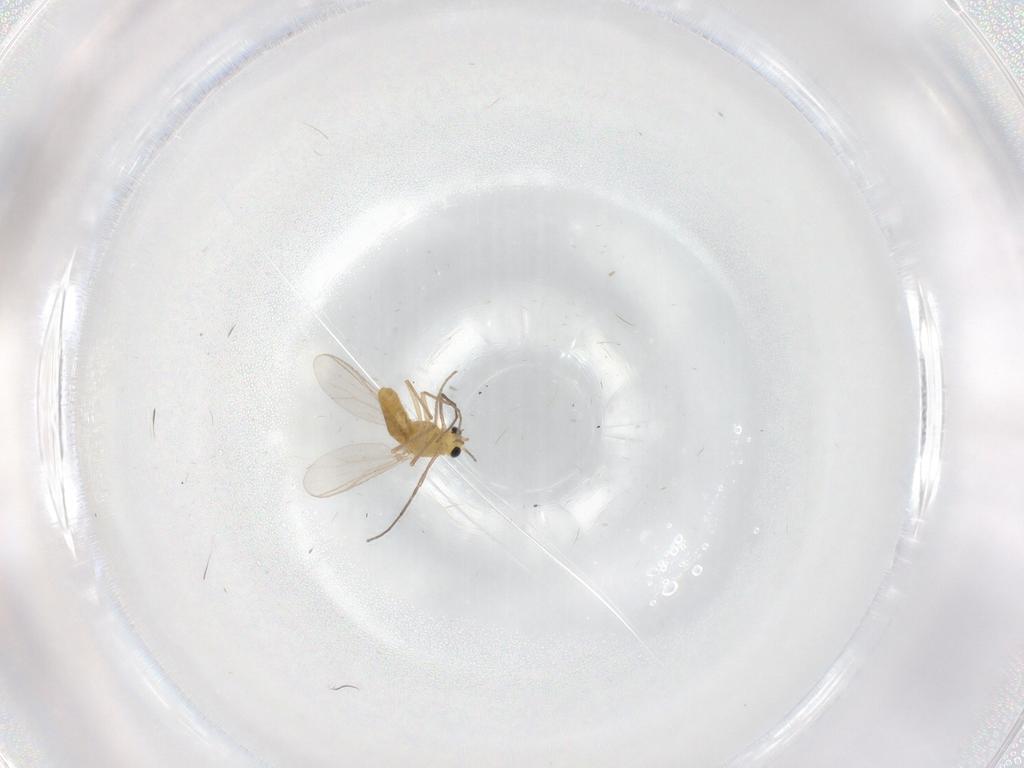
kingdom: Animalia
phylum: Arthropoda
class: Insecta
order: Diptera
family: Chironomidae
